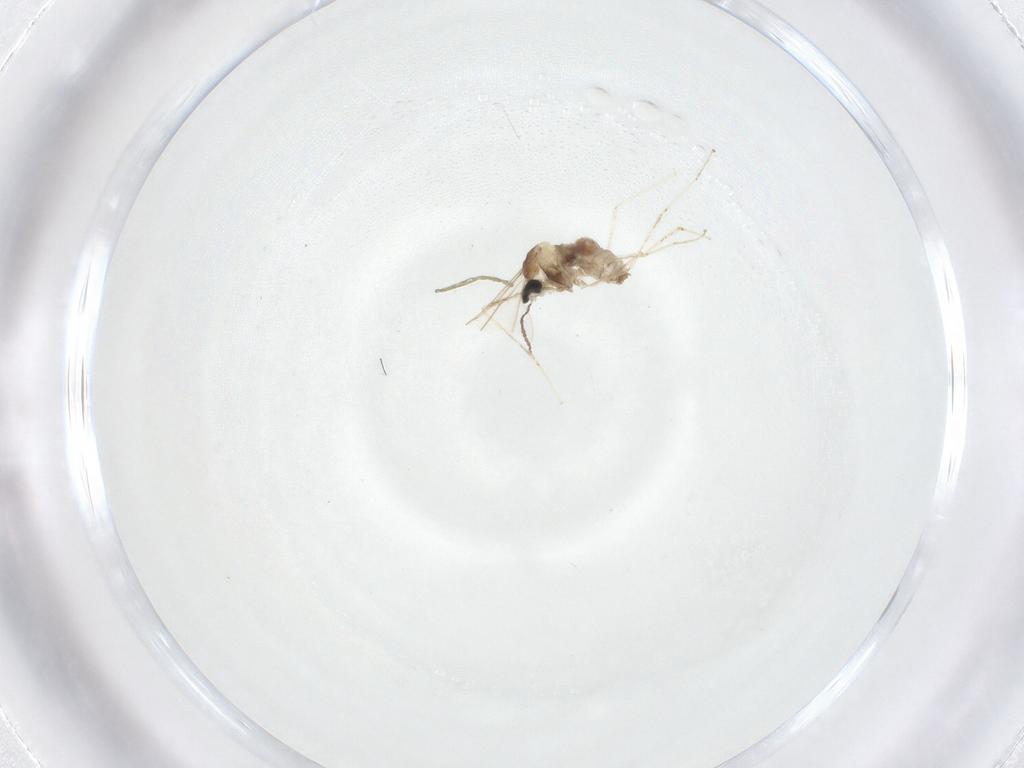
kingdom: Animalia
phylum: Arthropoda
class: Insecta
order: Diptera
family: Cecidomyiidae
